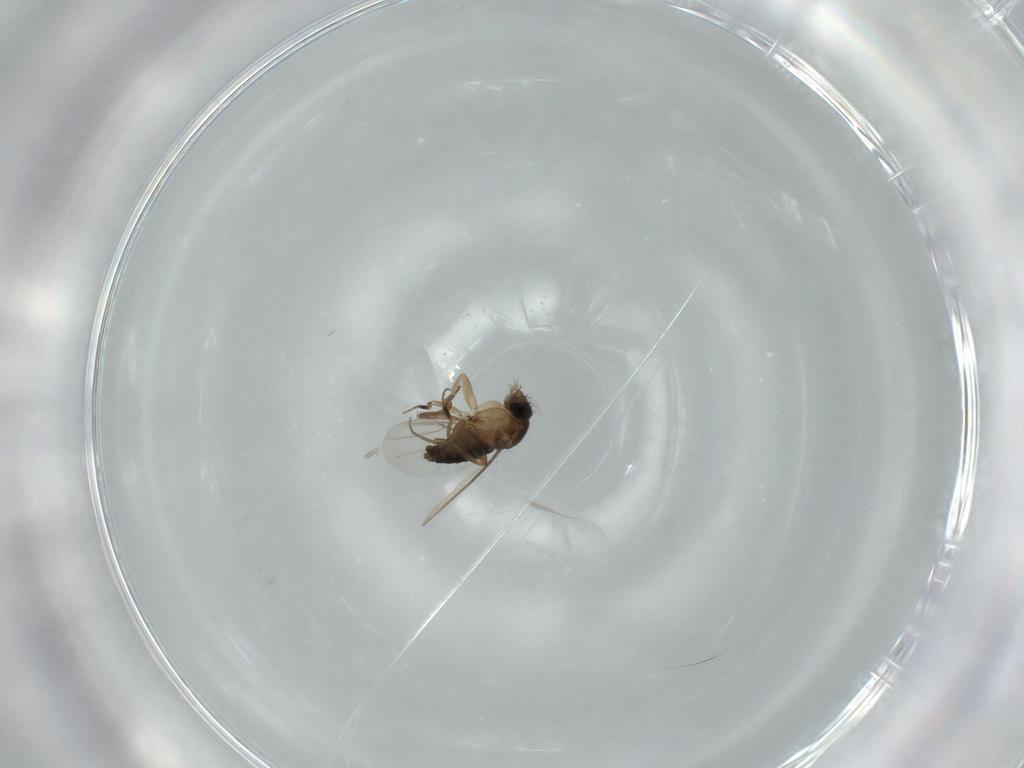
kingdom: Animalia
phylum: Arthropoda
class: Insecta
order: Diptera
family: Phoridae
